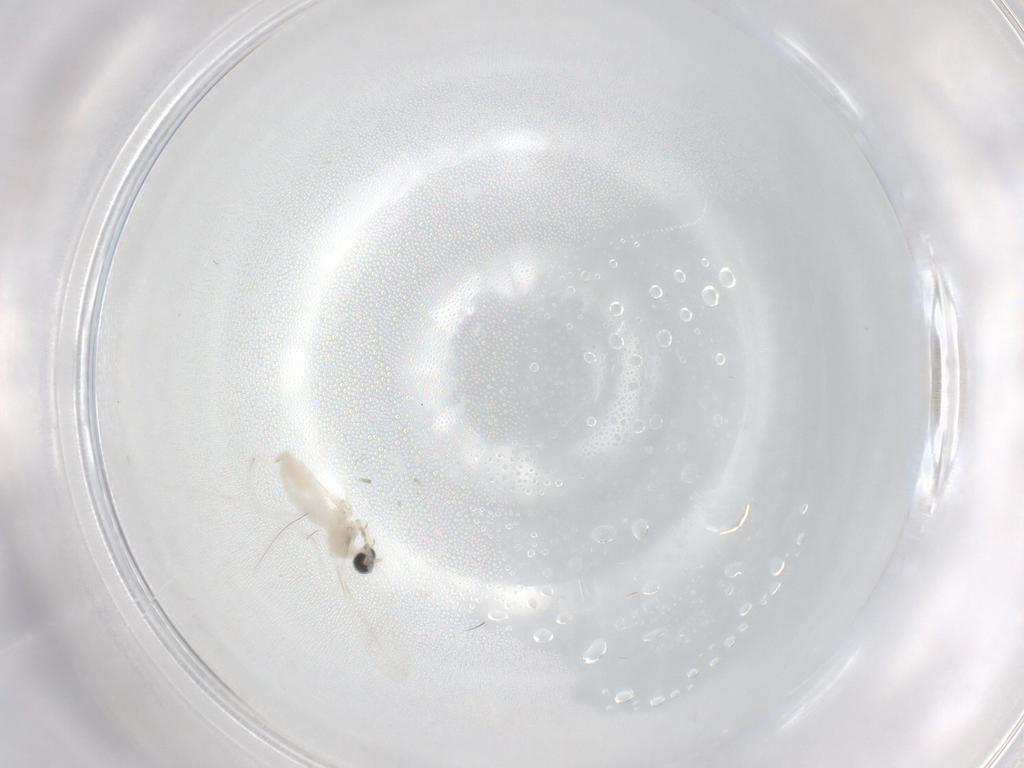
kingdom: Animalia
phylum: Arthropoda
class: Insecta
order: Diptera
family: Cecidomyiidae
